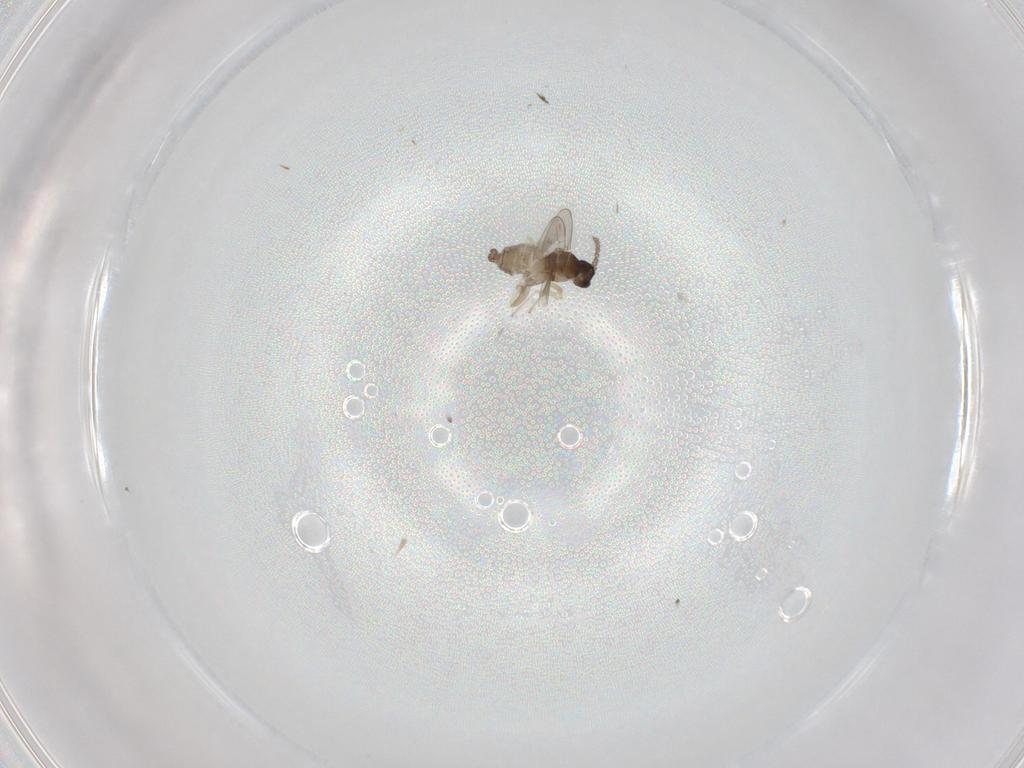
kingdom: Animalia
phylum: Arthropoda
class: Insecta
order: Diptera
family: Cecidomyiidae
